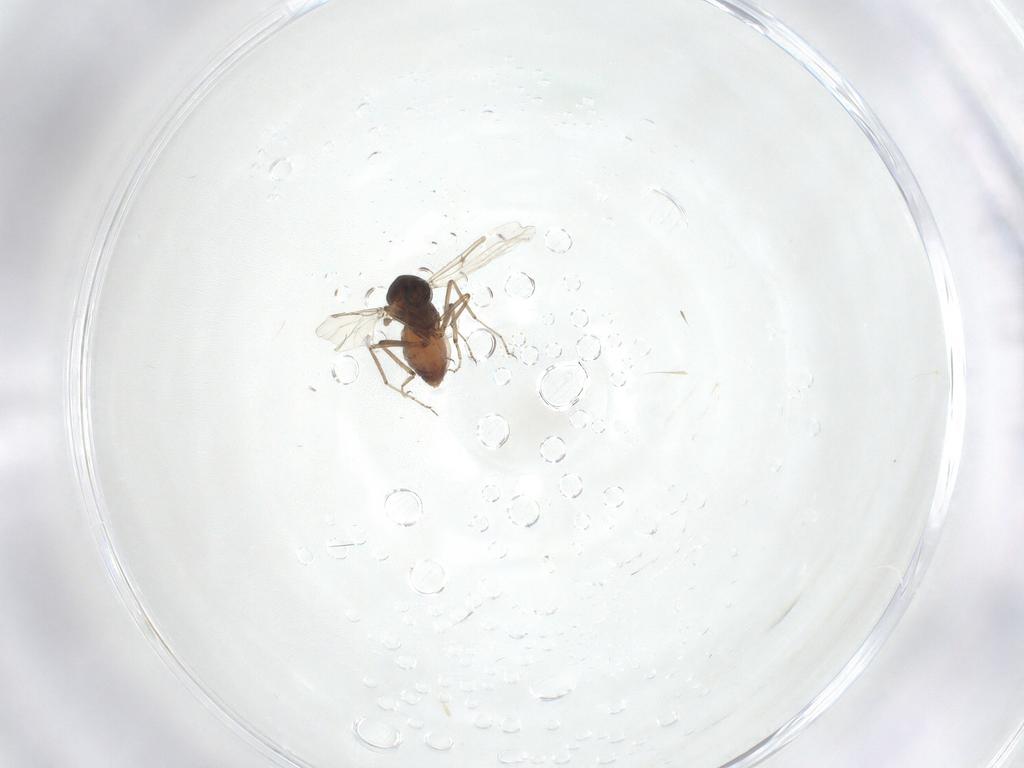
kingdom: Animalia
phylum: Arthropoda
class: Insecta
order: Diptera
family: Ceratopogonidae
